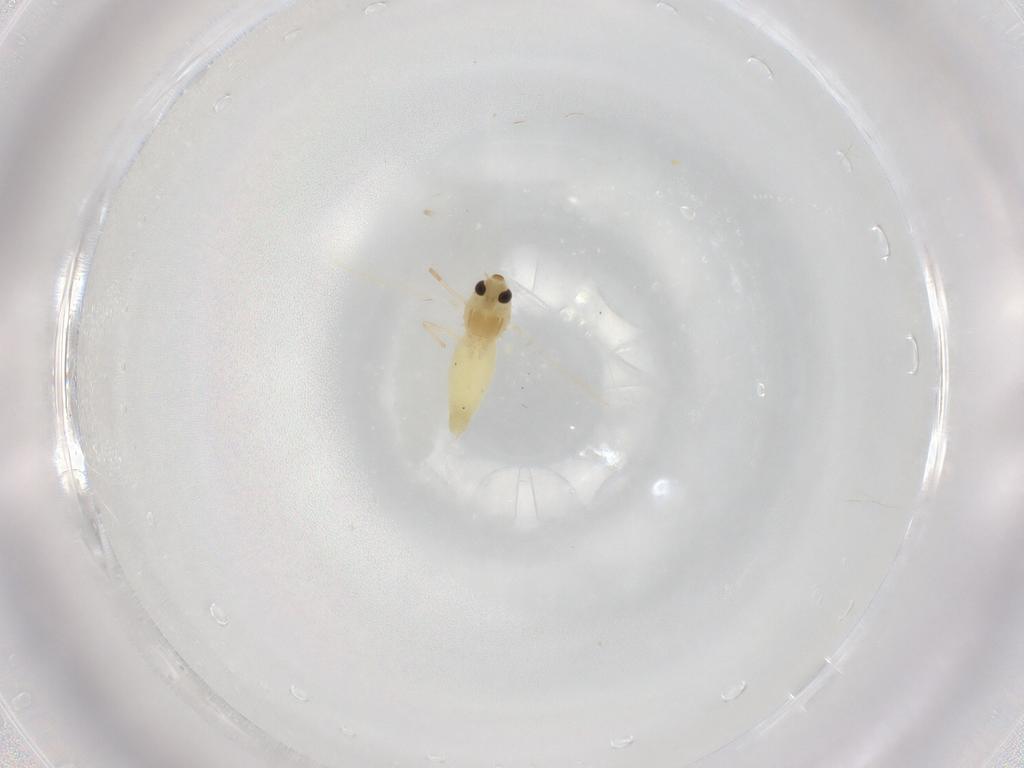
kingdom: Animalia
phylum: Arthropoda
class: Insecta
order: Diptera
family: Chironomidae
